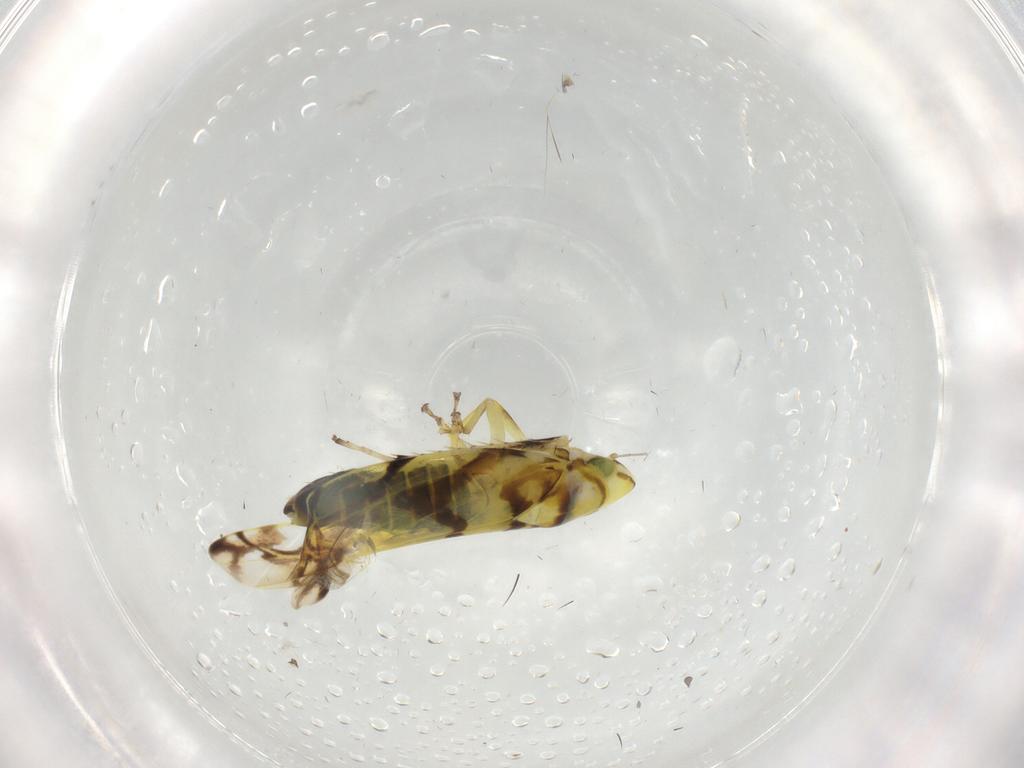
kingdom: Animalia
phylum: Arthropoda
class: Insecta
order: Hemiptera
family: Cicadellidae
